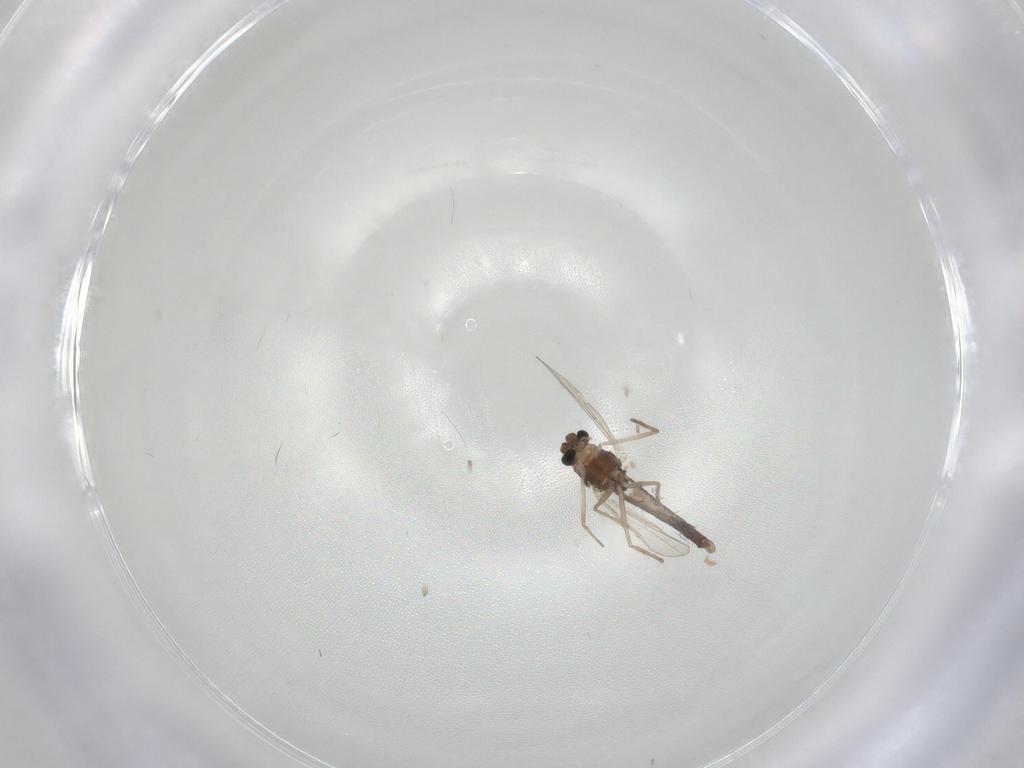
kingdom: Animalia
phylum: Arthropoda
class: Insecta
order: Diptera
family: Chironomidae
